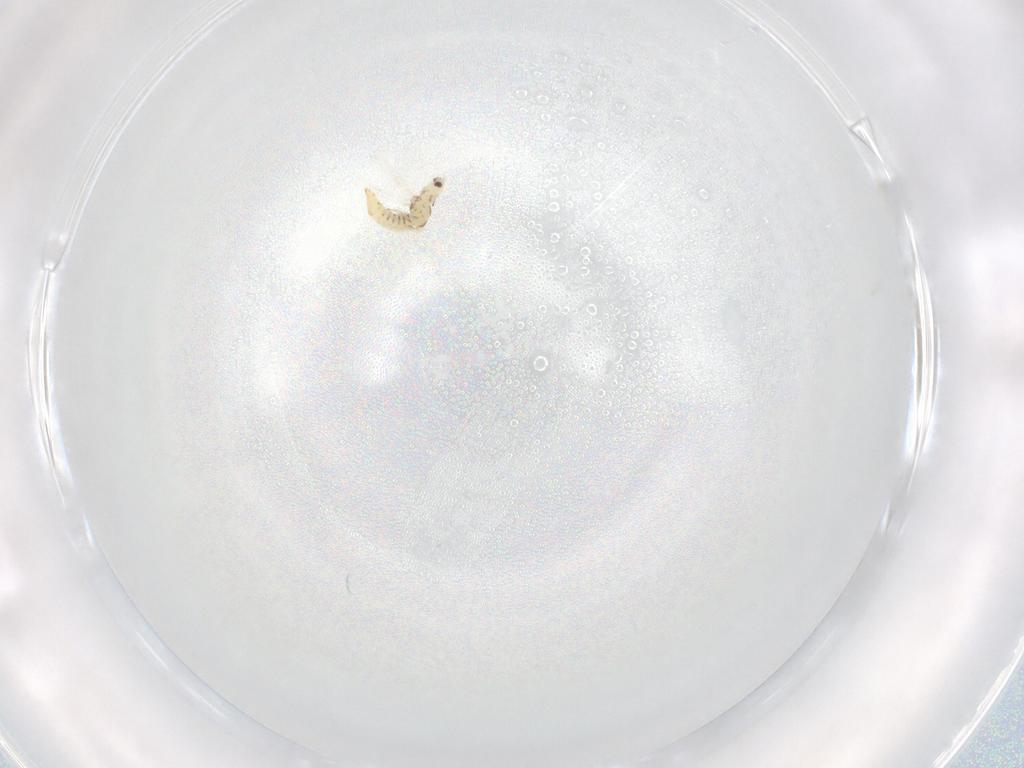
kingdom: Animalia
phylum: Arthropoda
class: Insecta
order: Thysanoptera
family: Thripidae
